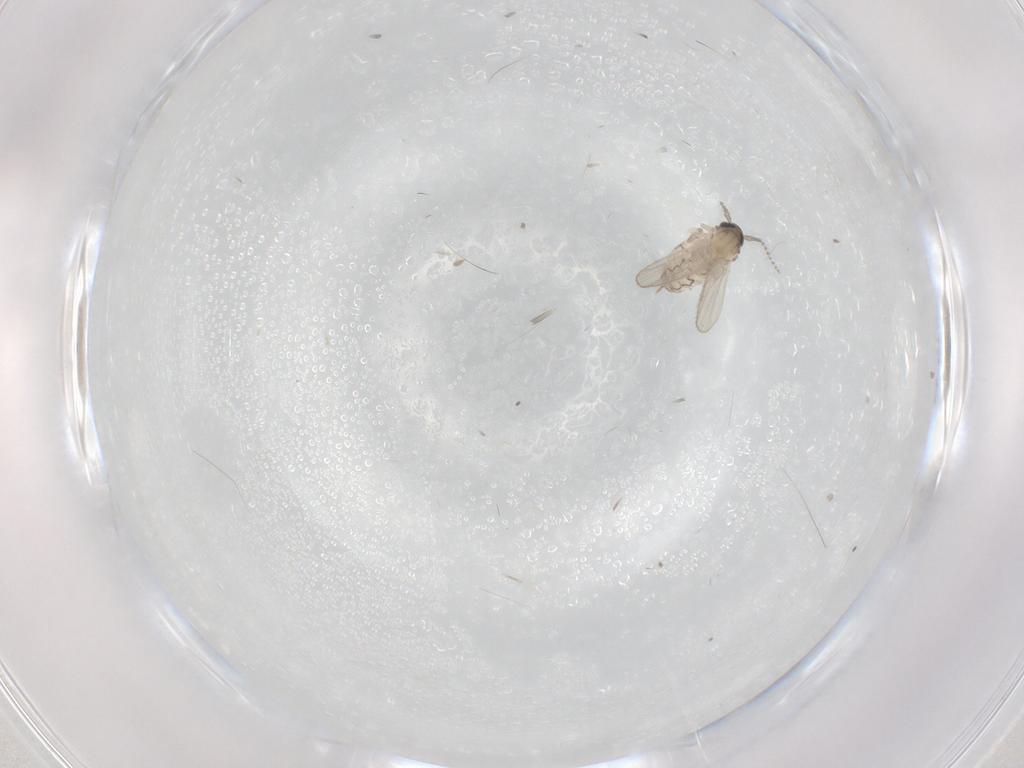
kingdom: Animalia
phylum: Arthropoda
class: Insecta
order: Diptera
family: Psychodidae
